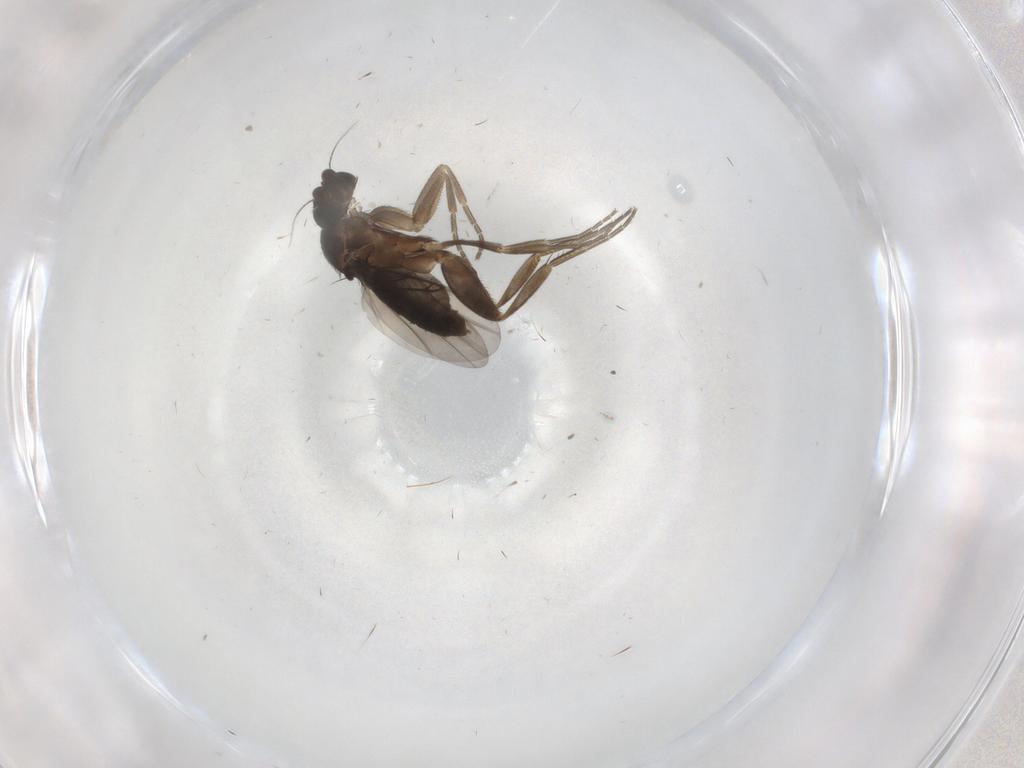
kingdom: Animalia
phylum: Arthropoda
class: Insecta
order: Diptera
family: Phoridae
